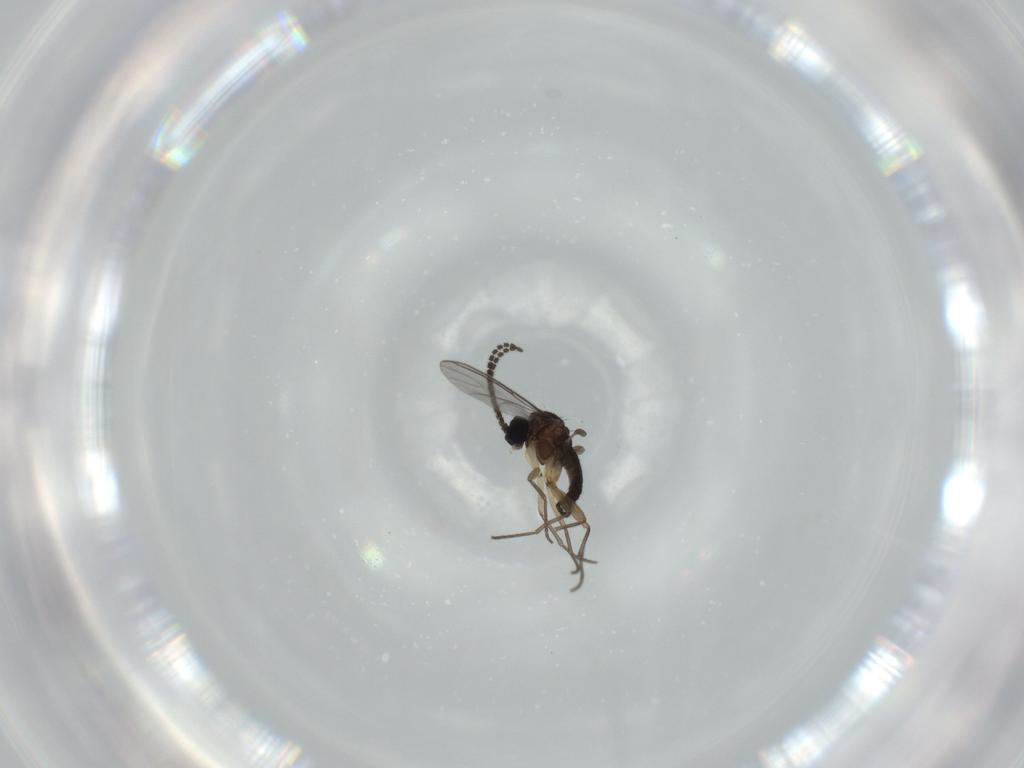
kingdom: Animalia
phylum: Arthropoda
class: Insecta
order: Diptera
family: Sciaridae
